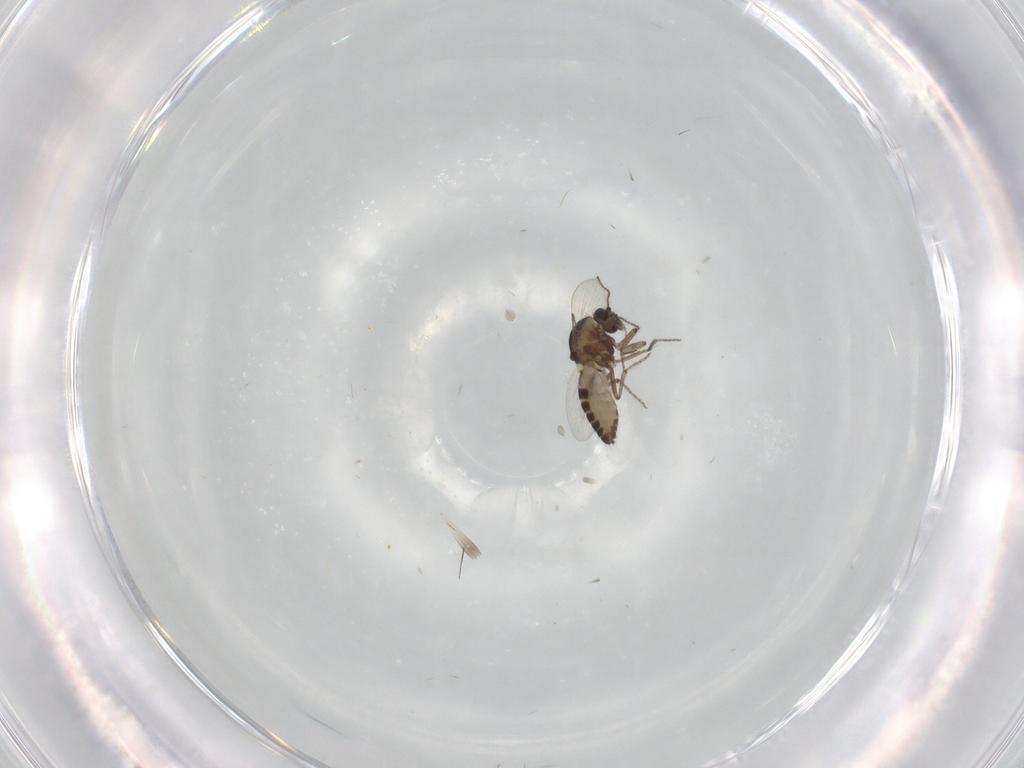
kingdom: Animalia
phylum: Arthropoda
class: Insecta
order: Diptera
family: Ceratopogonidae
